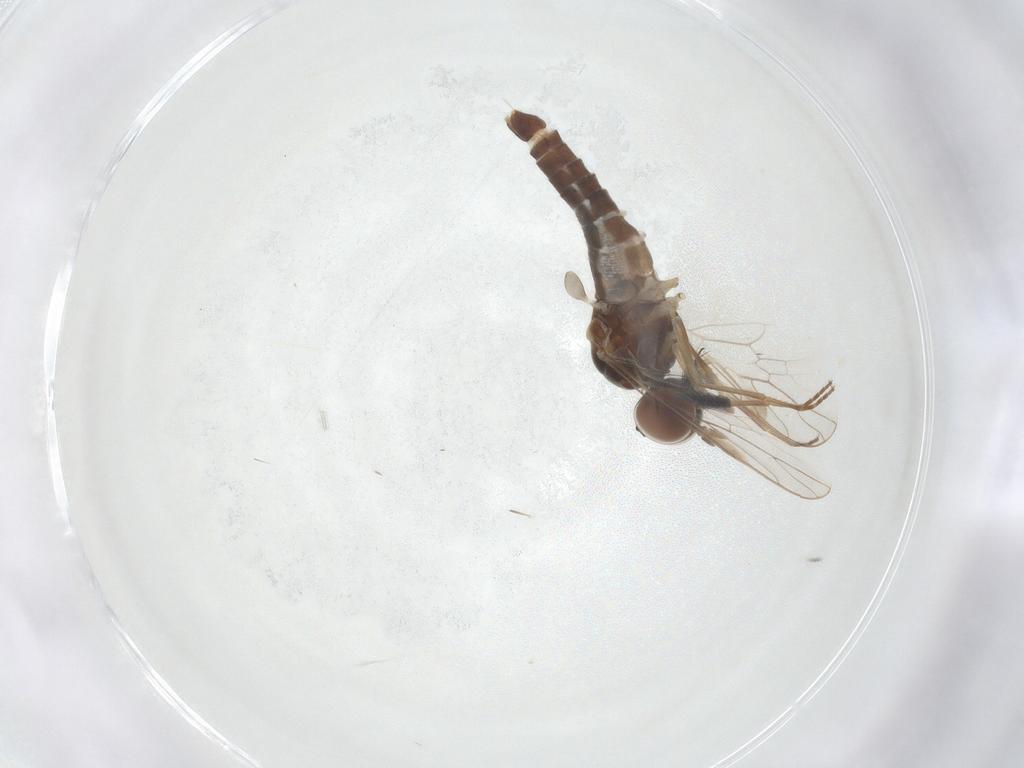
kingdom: Animalia
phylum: Arthropoda
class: Insecta
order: Diptera
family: Scenopinidae
